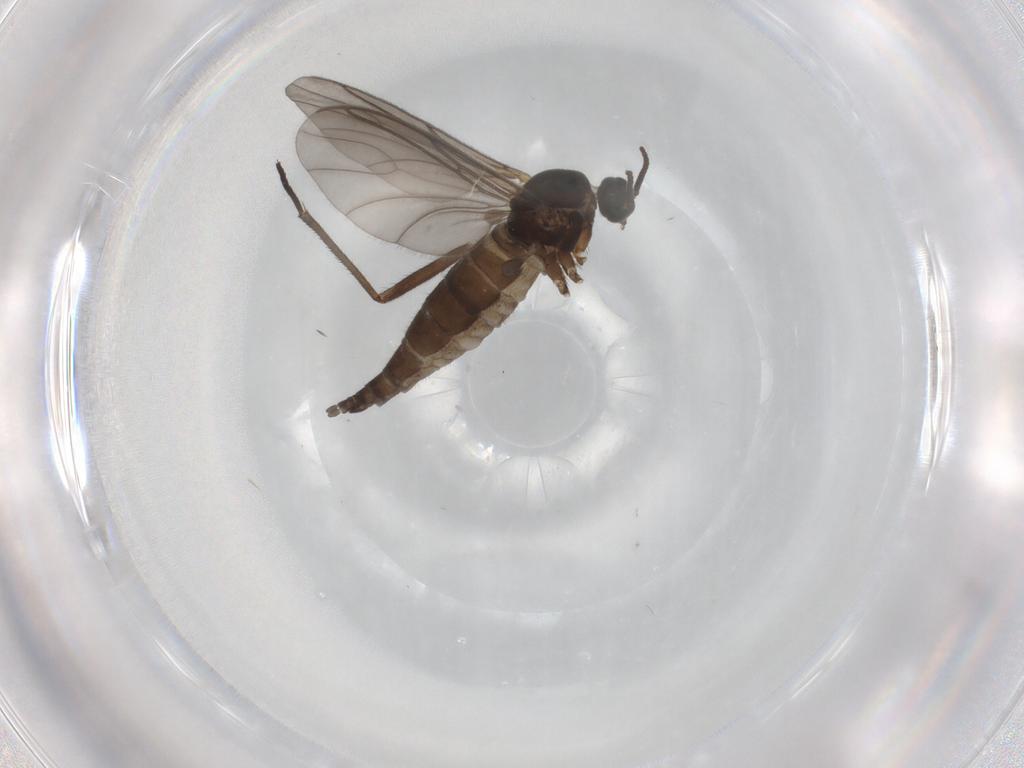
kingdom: Animalia
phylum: Arthropoda
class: Insecta
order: Diptera
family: Sciaridae
